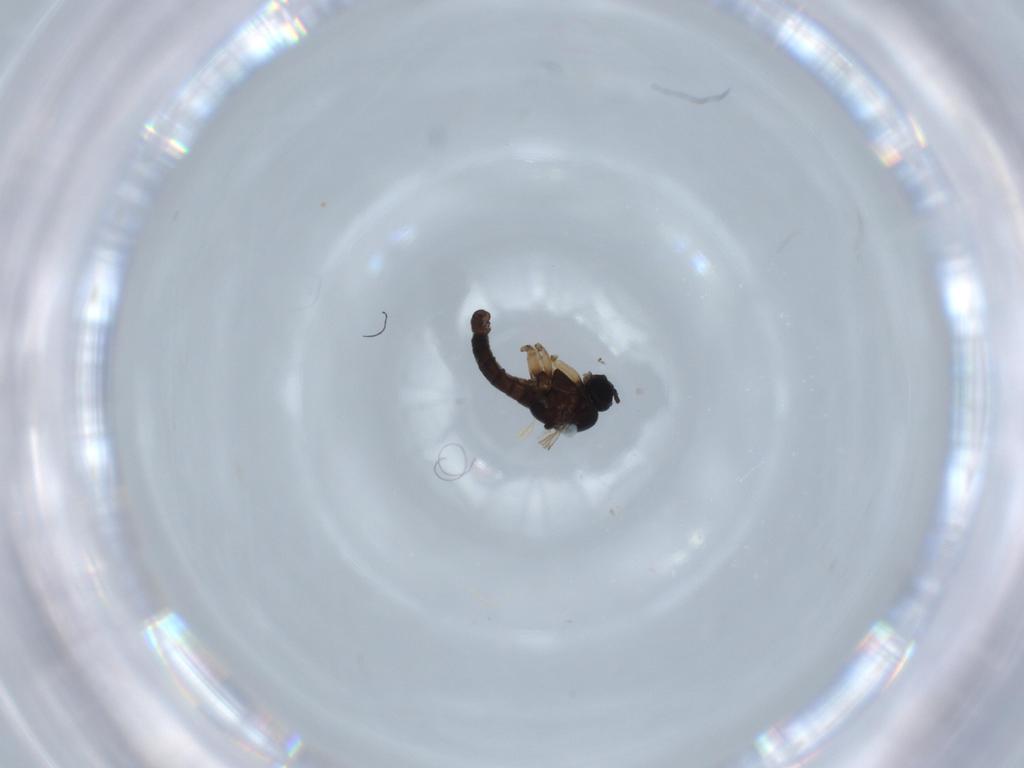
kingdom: Animalia
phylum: Arthropoda
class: Insecta
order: Diptera
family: Sciaridae
